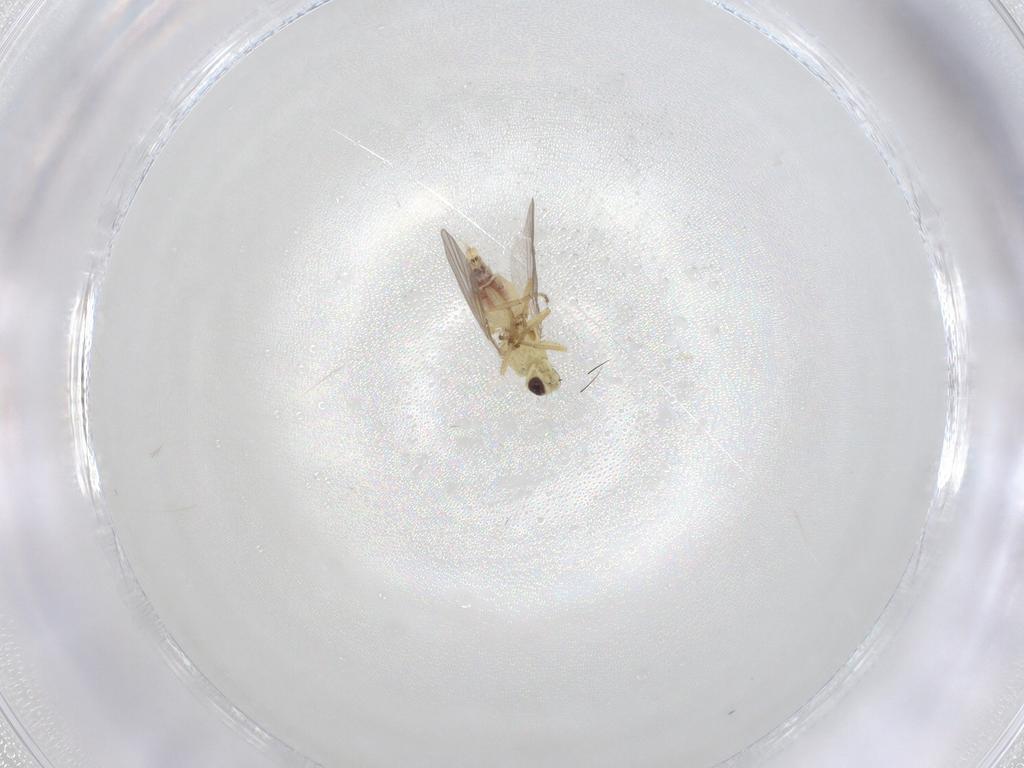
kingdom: Animalia
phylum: Arthropoda
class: Insecta
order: Diptera
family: Agromyzidae
